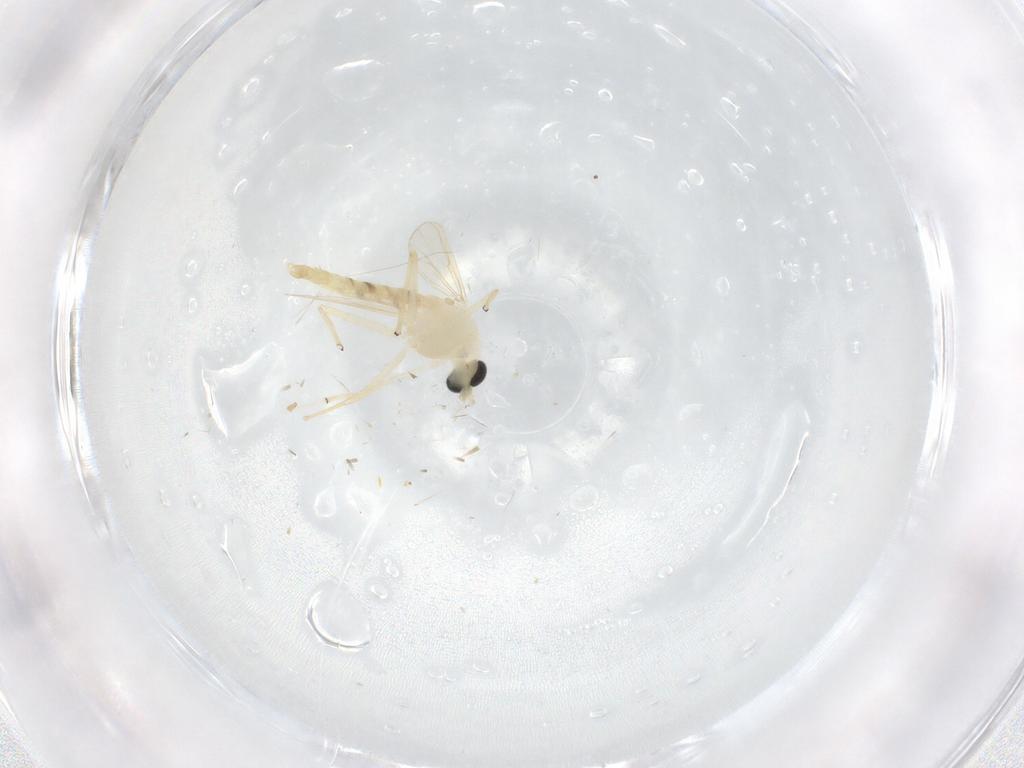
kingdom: Animalia
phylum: Arthropoda
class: Insecta
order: Diptera
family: Chironomidae
